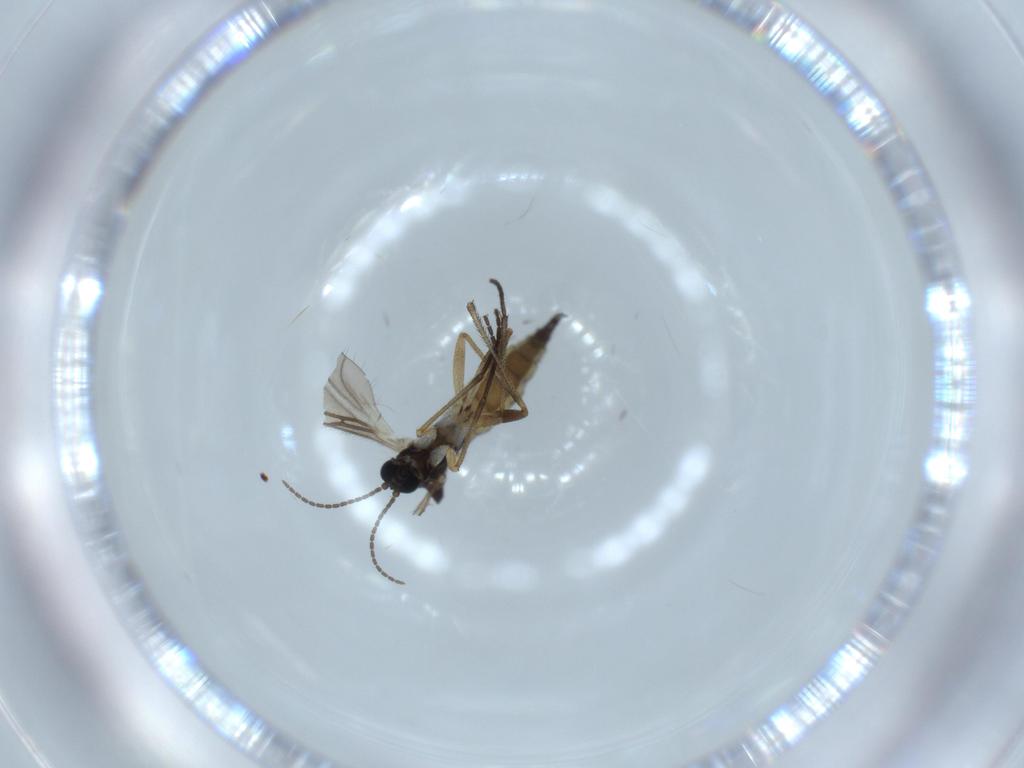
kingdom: Animalia
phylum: Arthropoda
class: Insecta
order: Diptera
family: Sciaridae
